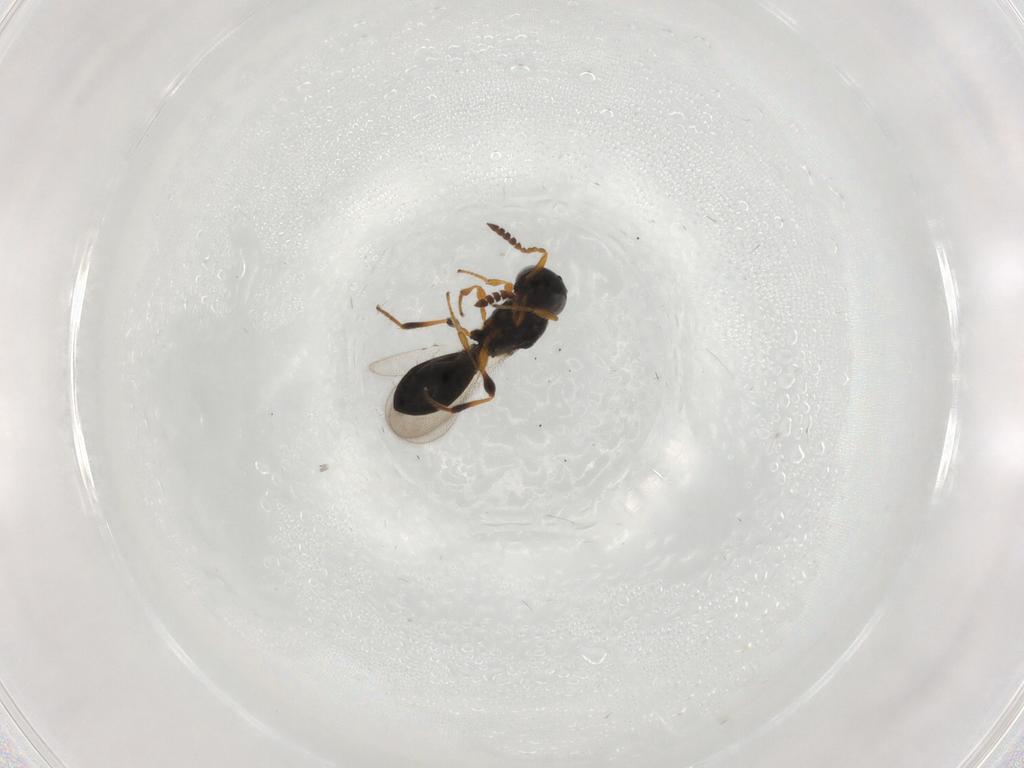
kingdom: Animalia
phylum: Arthropoda
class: Insecta
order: Hymenoptera
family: Platygastridae
